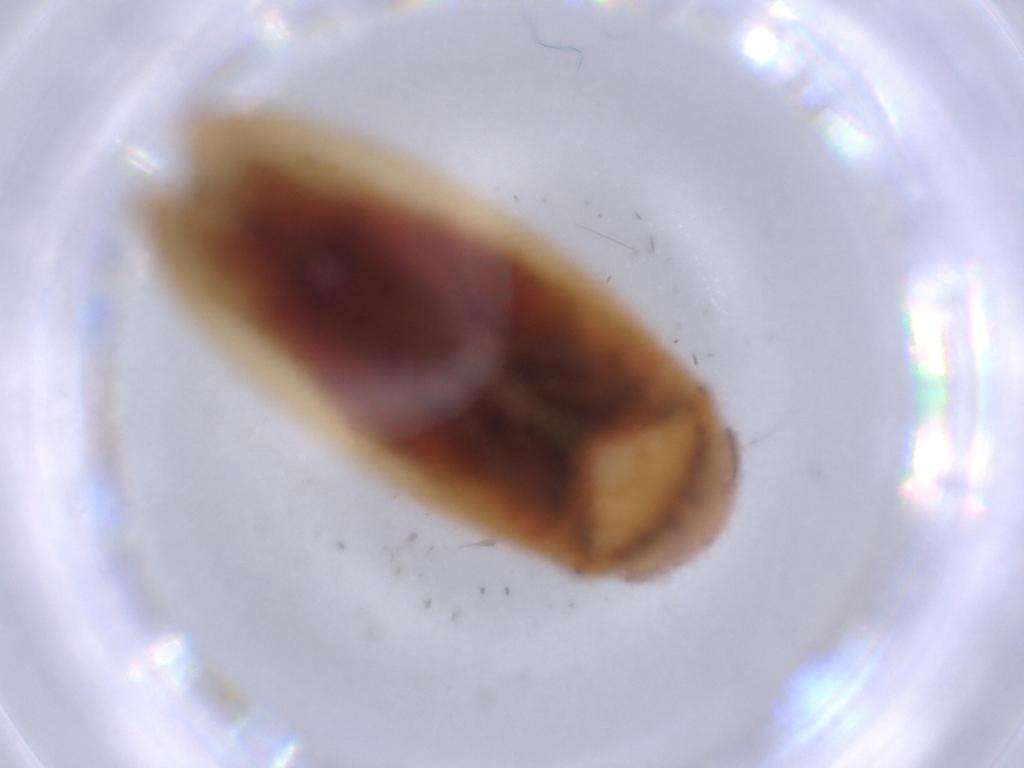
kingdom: Animalia
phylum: Arthropoda
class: Insecta
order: Hemiptera
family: Cicadellidae
